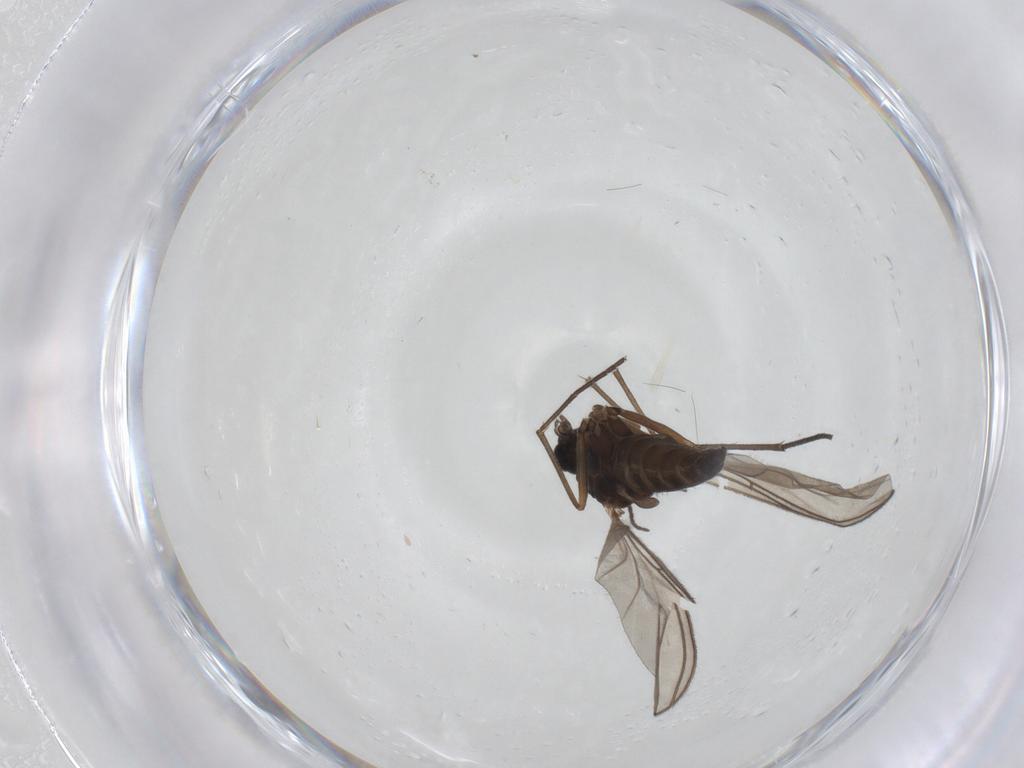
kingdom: Animalia
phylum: Arthropoda
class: Insecta
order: Diptera
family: Sciaridae
